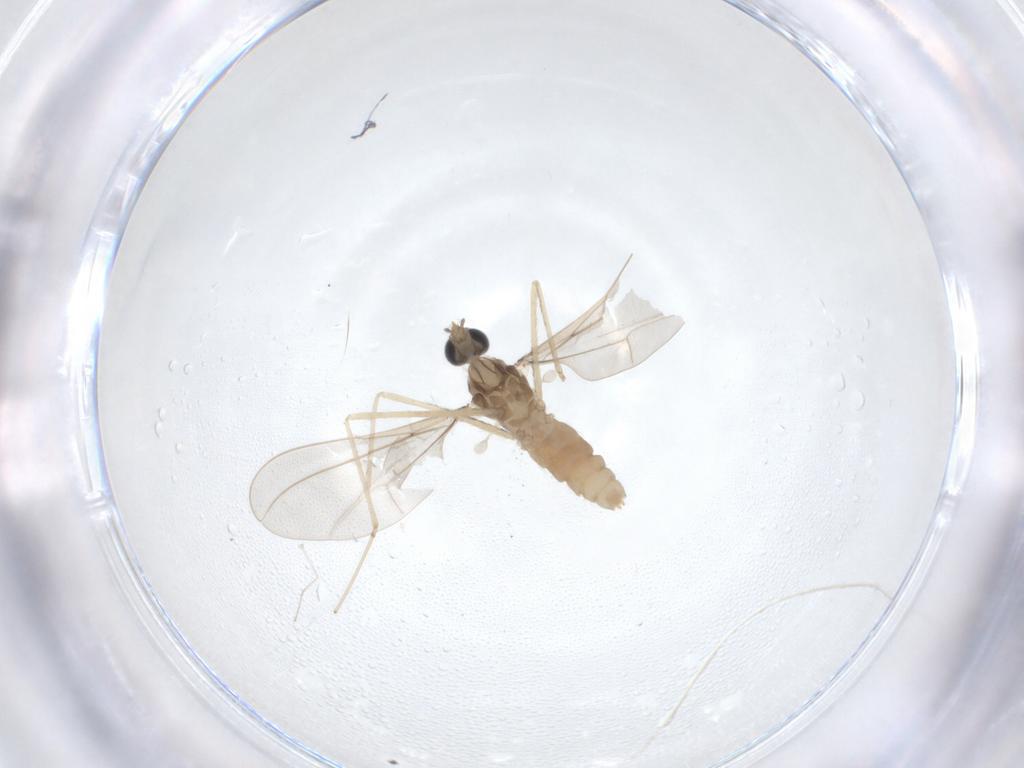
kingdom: Animalia
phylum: Arthropoda
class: Insecta
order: Diptera
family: Cecidomyiidae
